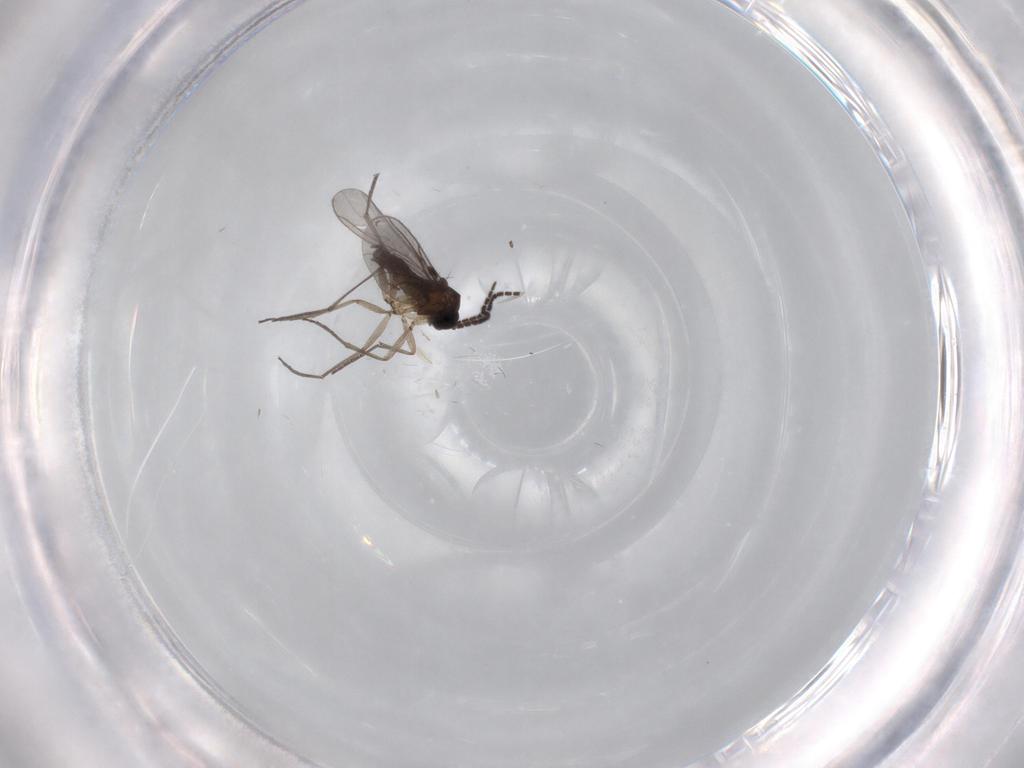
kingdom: Animalia
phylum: Arthropoda
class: Insecta
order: Diptera
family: Sciaridae
